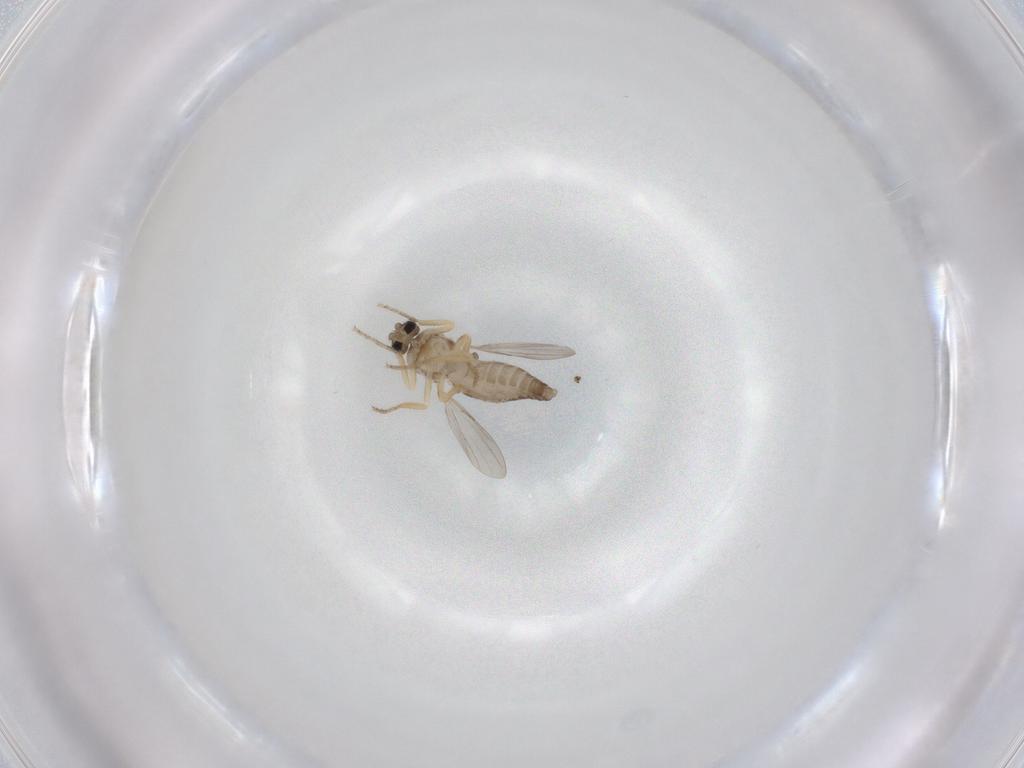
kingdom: Animalia
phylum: Arthropoda
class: Insecta
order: Diptera
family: Ceratopogonidae
